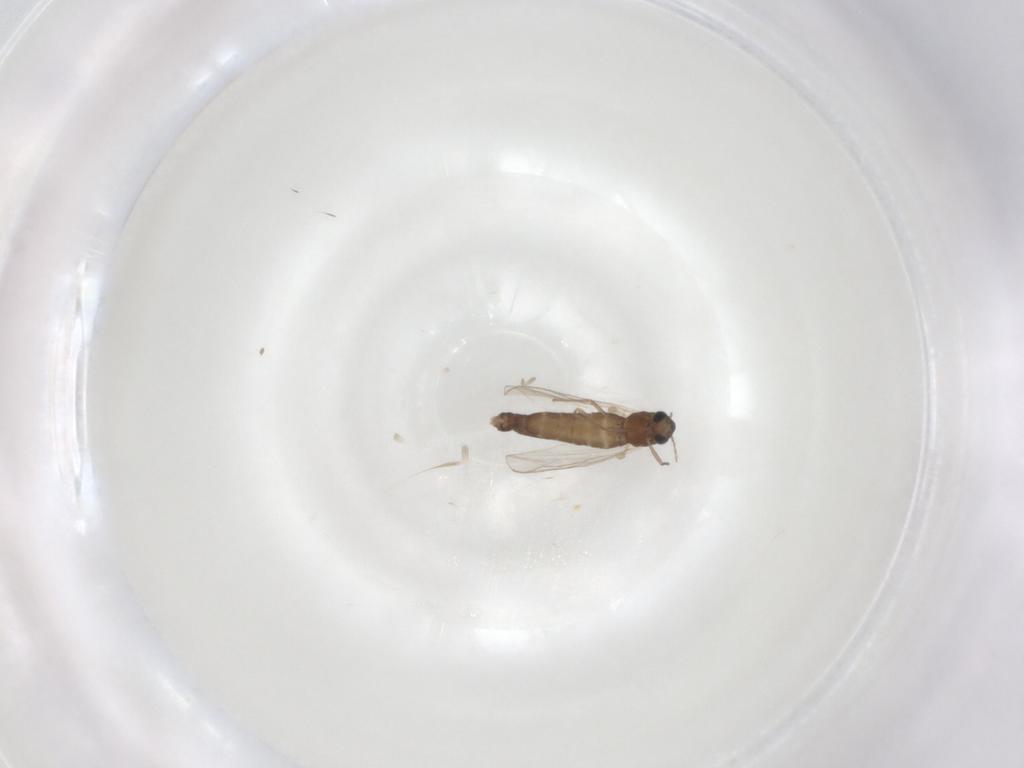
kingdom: Animalia
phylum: Arthropoda
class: Insecta
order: Diptera
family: Chironomidae
